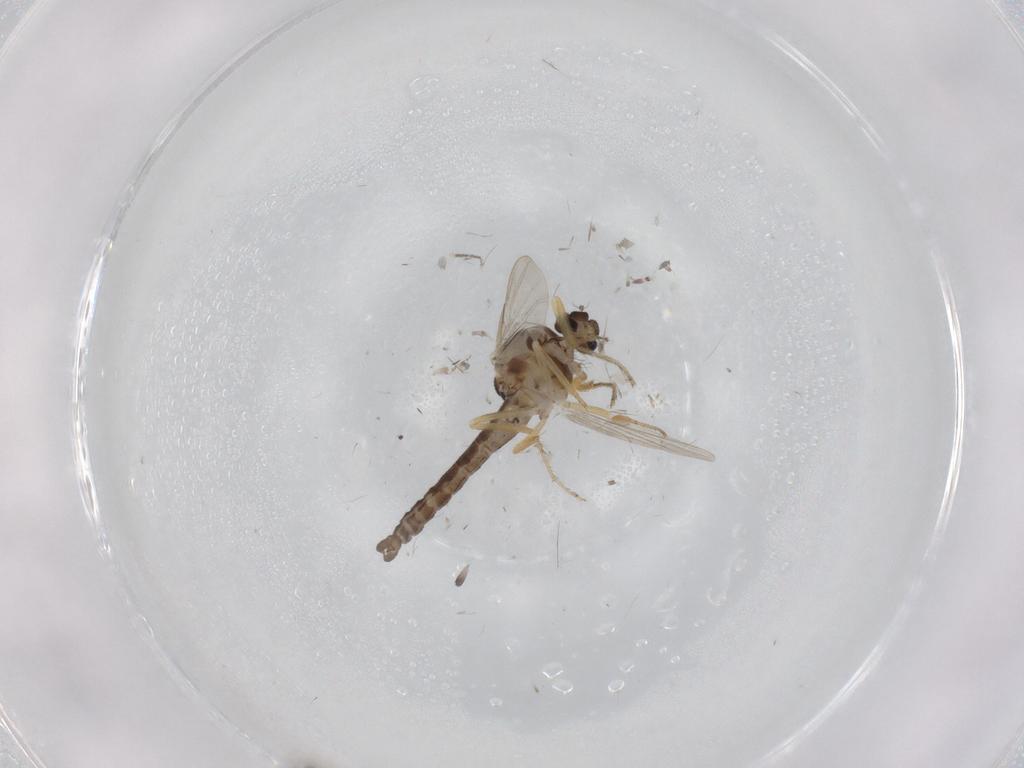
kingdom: Animalia
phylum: Arthropoda
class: Insecta
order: Diptera
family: Ceratopogonidae
